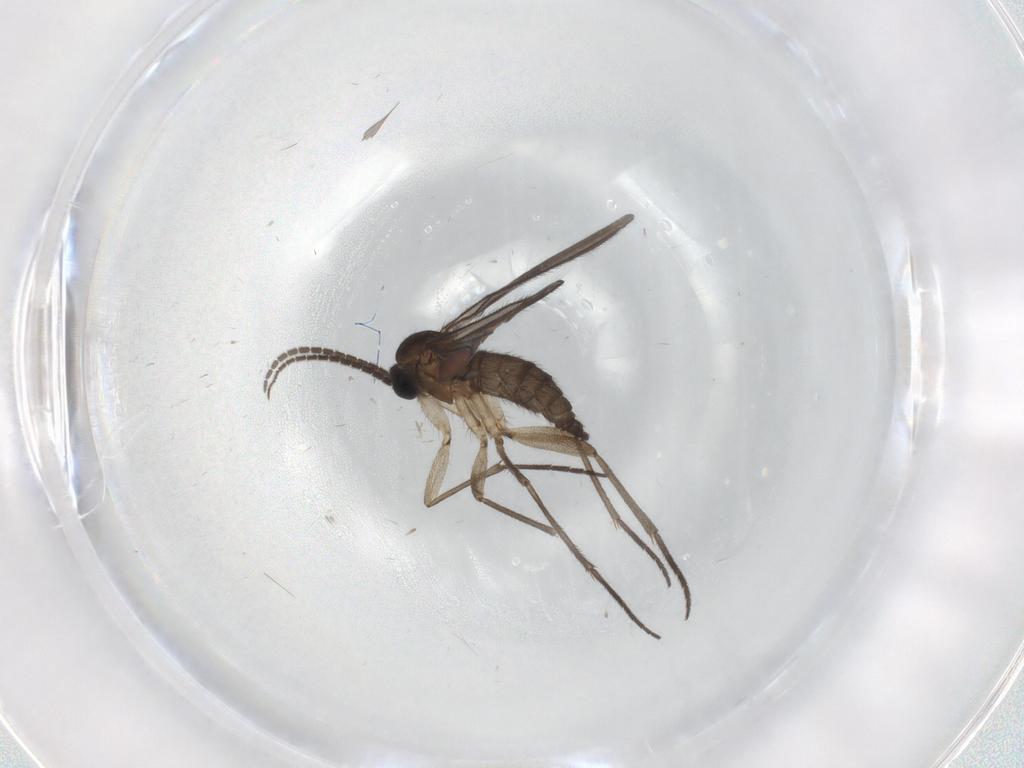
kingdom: Animalia
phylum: Arthropoda
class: Insecta
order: Diptera
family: Sciaridae
